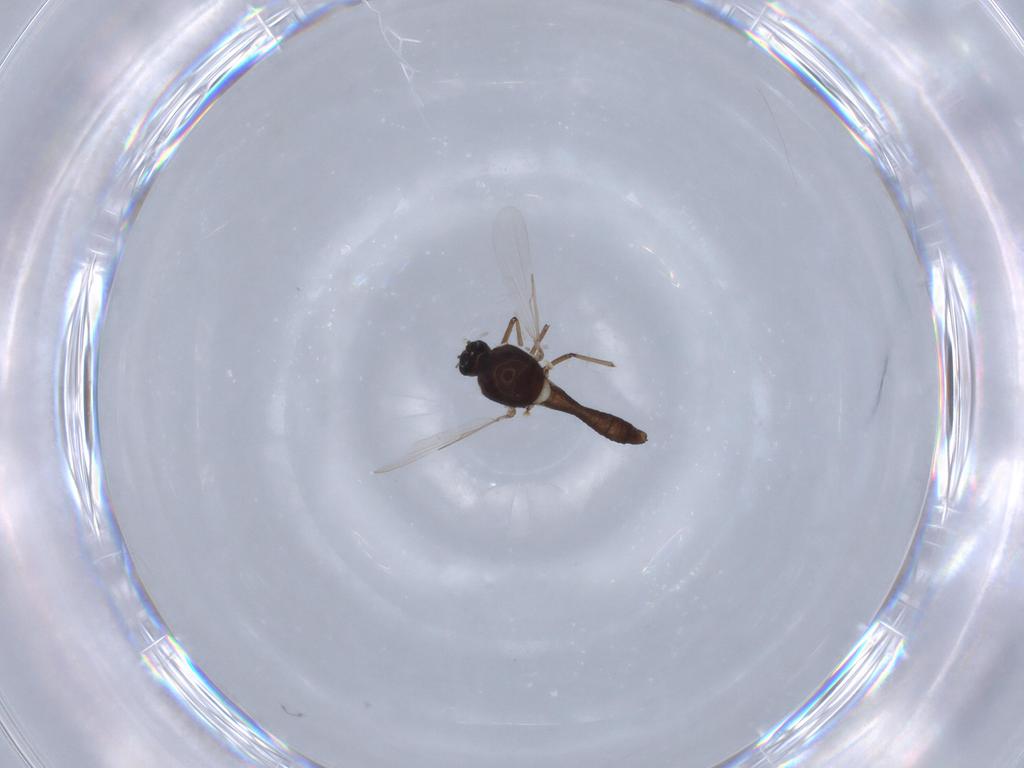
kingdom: Animalia
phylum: Arthropoda
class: Insecta
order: Diptera
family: Ceratopogonidae
